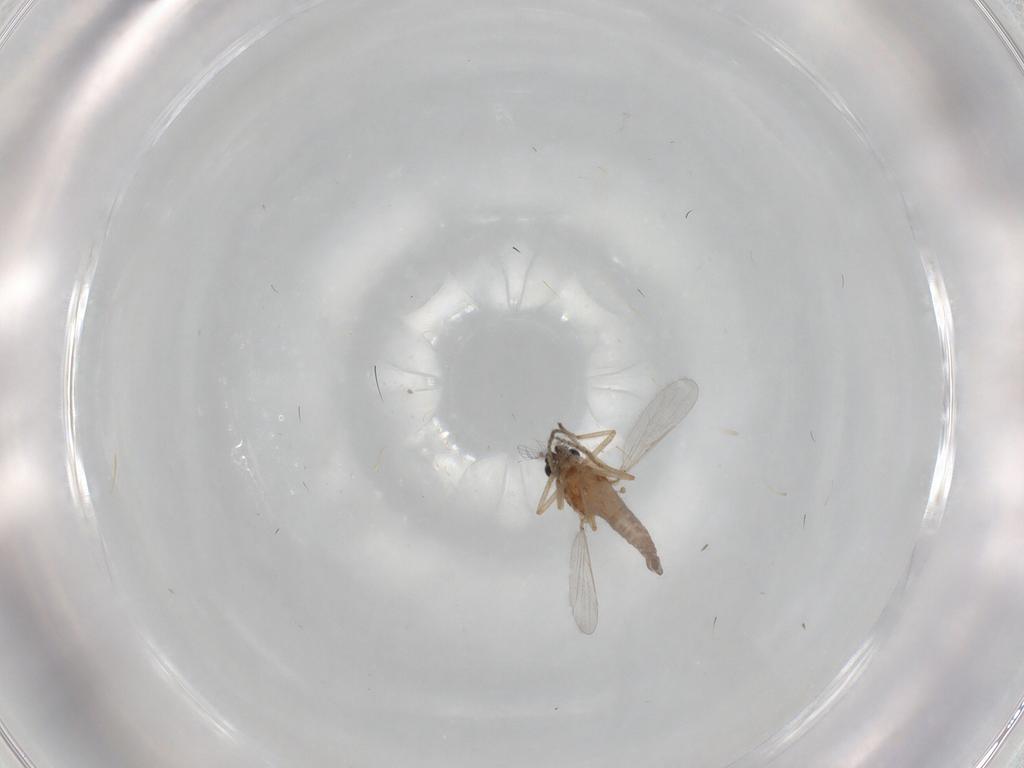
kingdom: Animalia
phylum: Arthropoda
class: Insecta
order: Diptera
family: Ceratopogonidae
